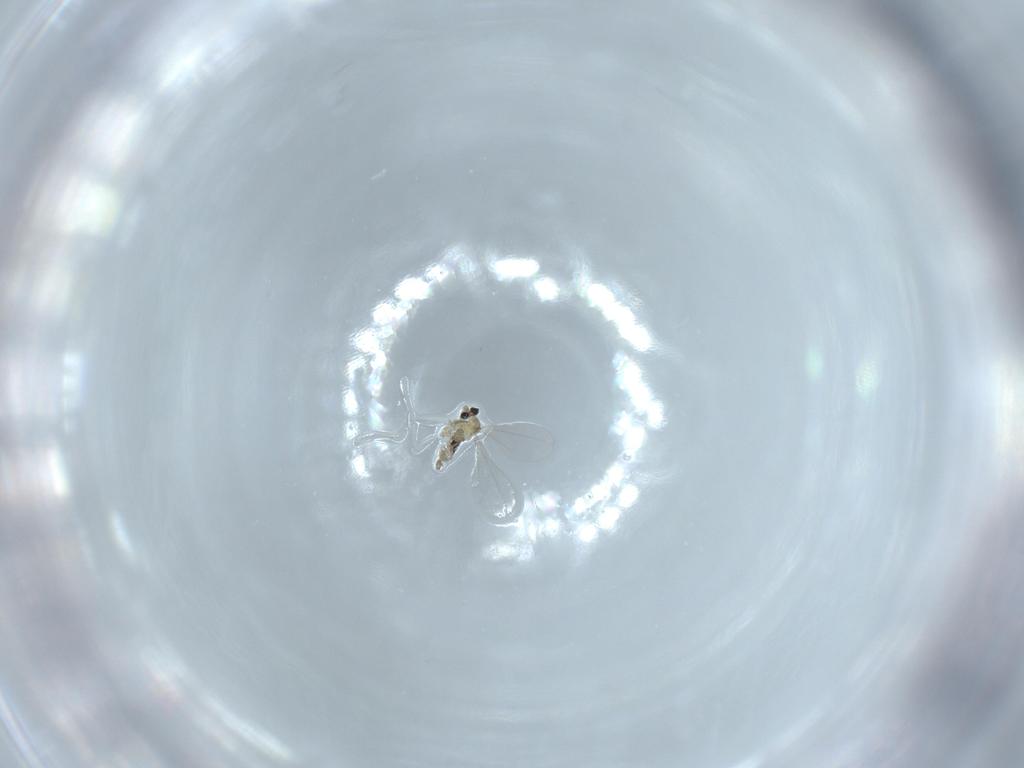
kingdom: Animalia
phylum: Arthropoda
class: Insecta
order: Diptera
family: Cecidomyiidae
